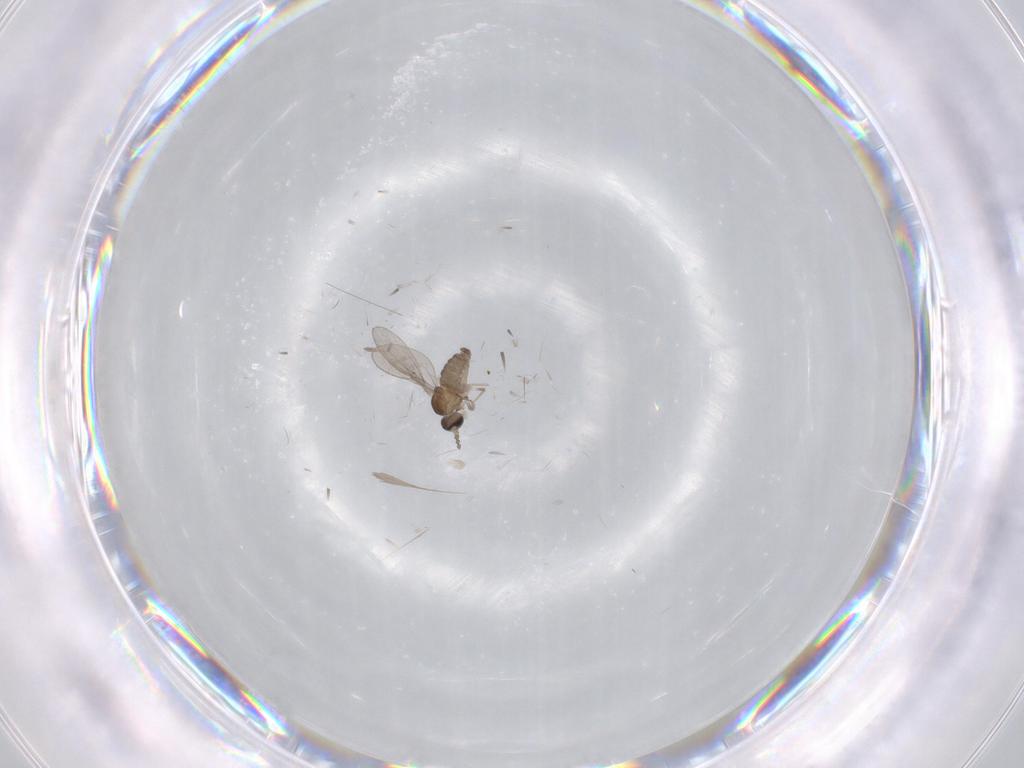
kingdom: Animalia
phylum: Arthropoda
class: Insecta
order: Diptera
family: Cecidomyiidae
